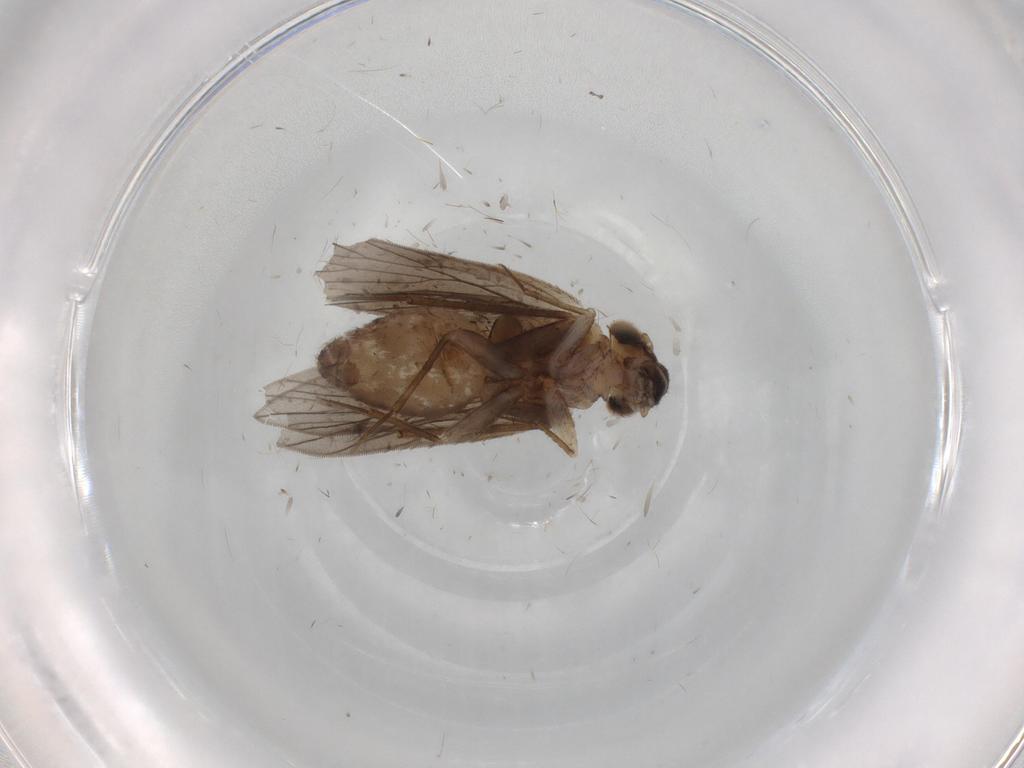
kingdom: Animalia
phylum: Arthropoda
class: Insecta
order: Psocodea
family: Lepidopsocidae
